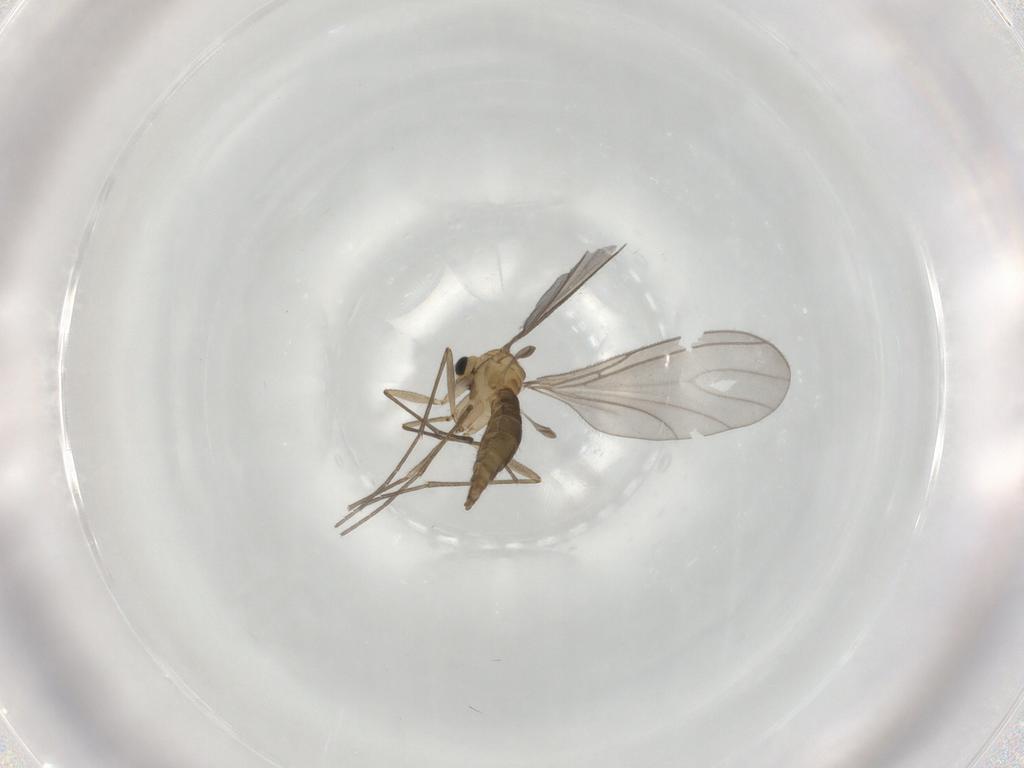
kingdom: Animalia
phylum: Arthropoda
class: Insecta
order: Diptera
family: Sciaridae
